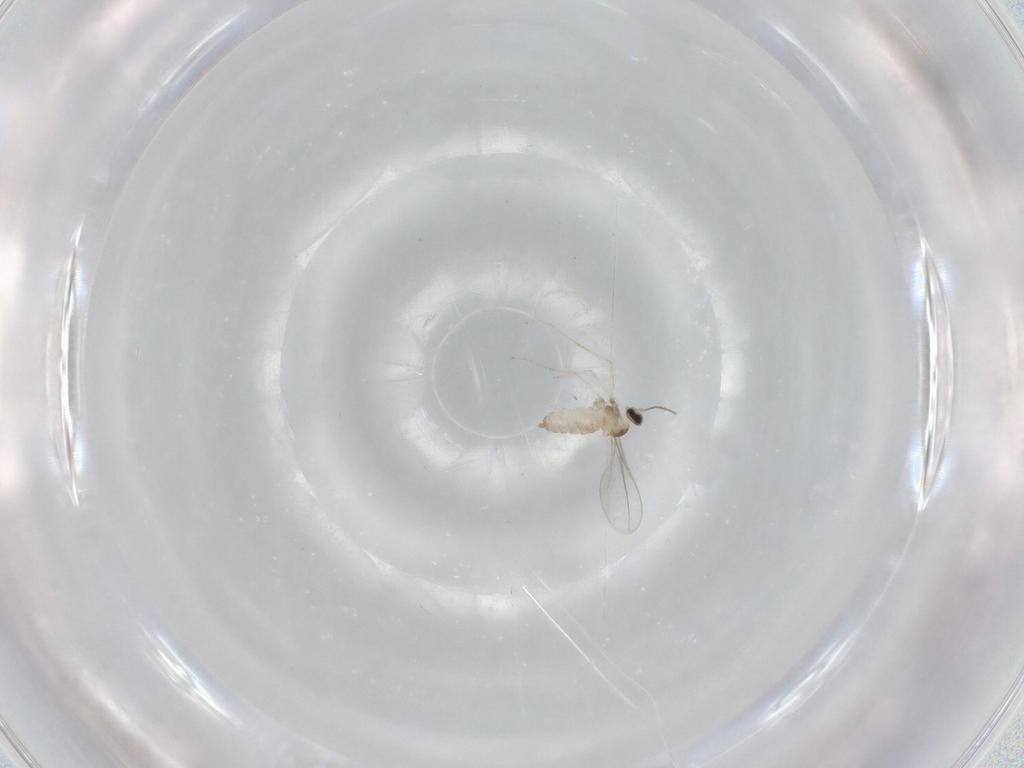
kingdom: Animalia
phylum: Arthropoda
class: Insecta
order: Diptera
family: Cecidomyiidae
